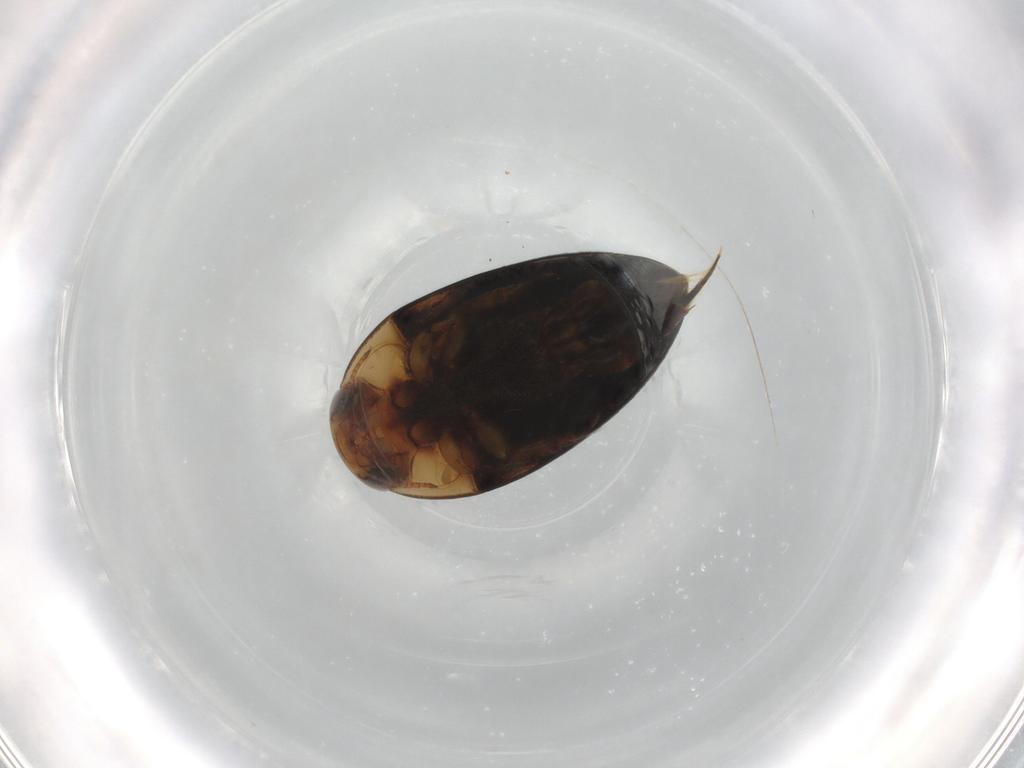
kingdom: Animalia
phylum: Arthropoda
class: Insecta
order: Coleoptera
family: Noteridae
